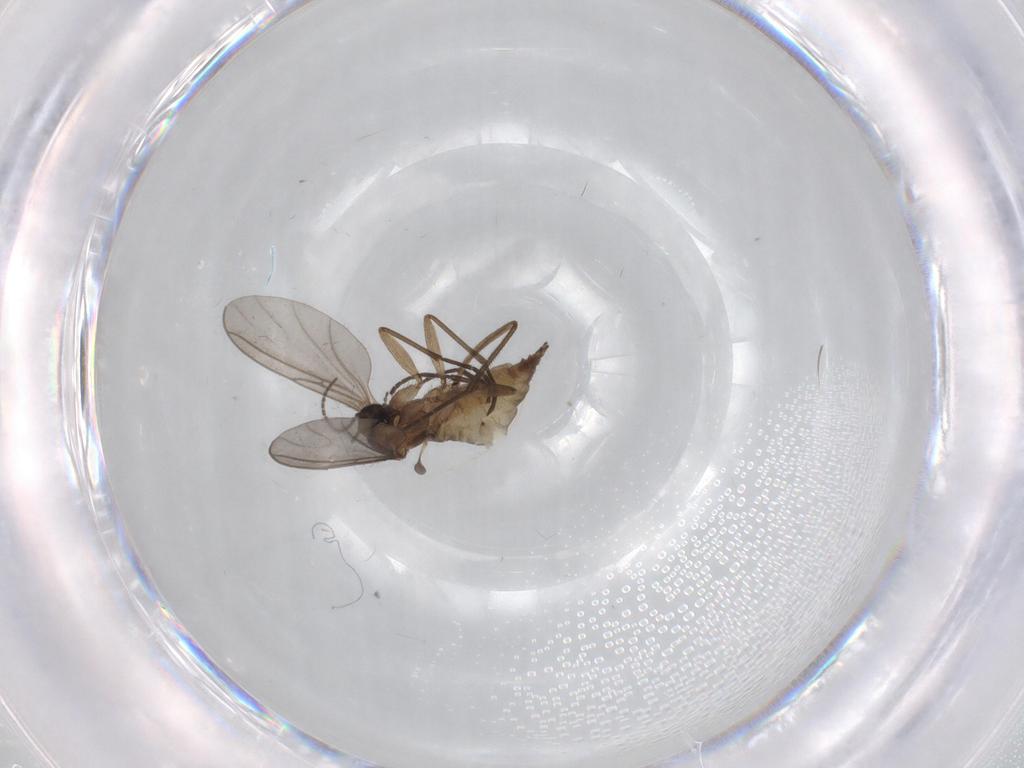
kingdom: Animalia
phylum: Arthropoda
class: Insecta
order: Diptera
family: Sciaridae
